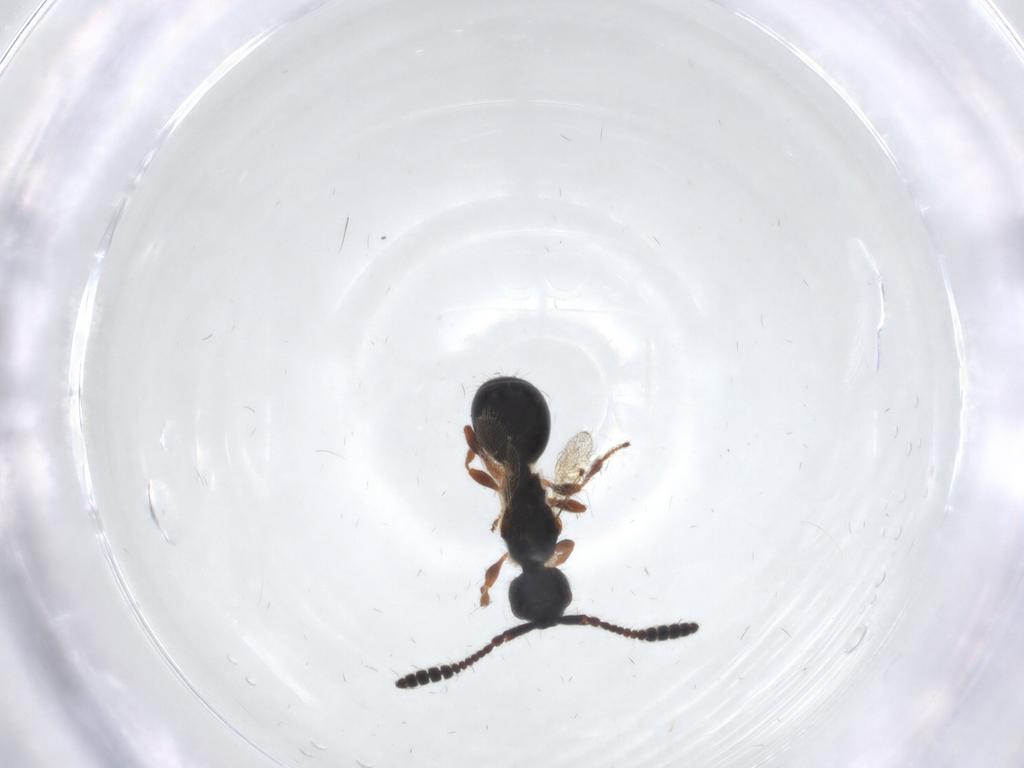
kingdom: Animalia
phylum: Arthropoda
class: Insecta
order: Hymenoptera
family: Diapriidae
